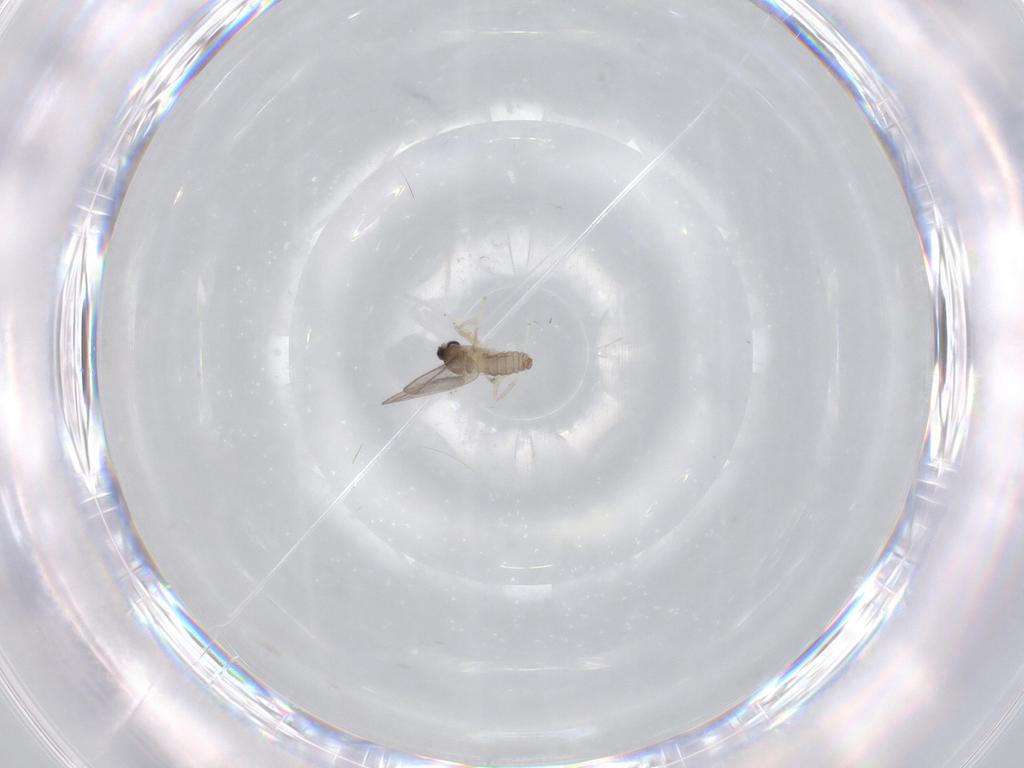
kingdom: Animalia
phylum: Arthropoda
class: Insecta
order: Diptera
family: Cecidomyiidae
